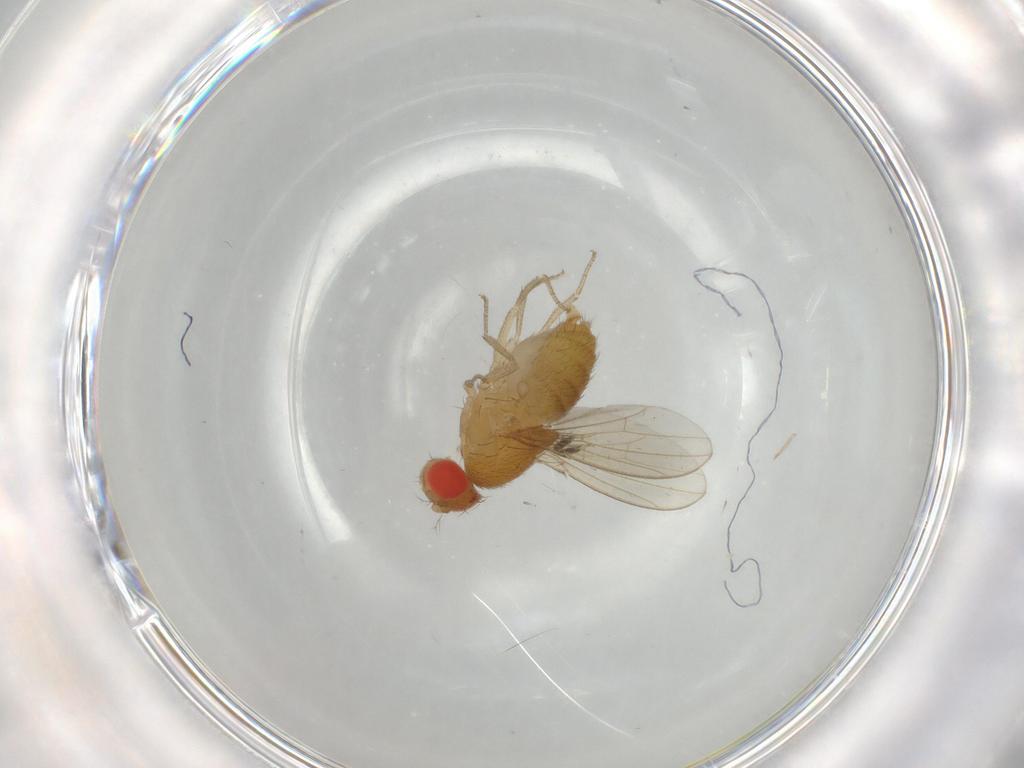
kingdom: Animalia
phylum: Arthropoda
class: Insecta
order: Diptera
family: Drosophilidae
